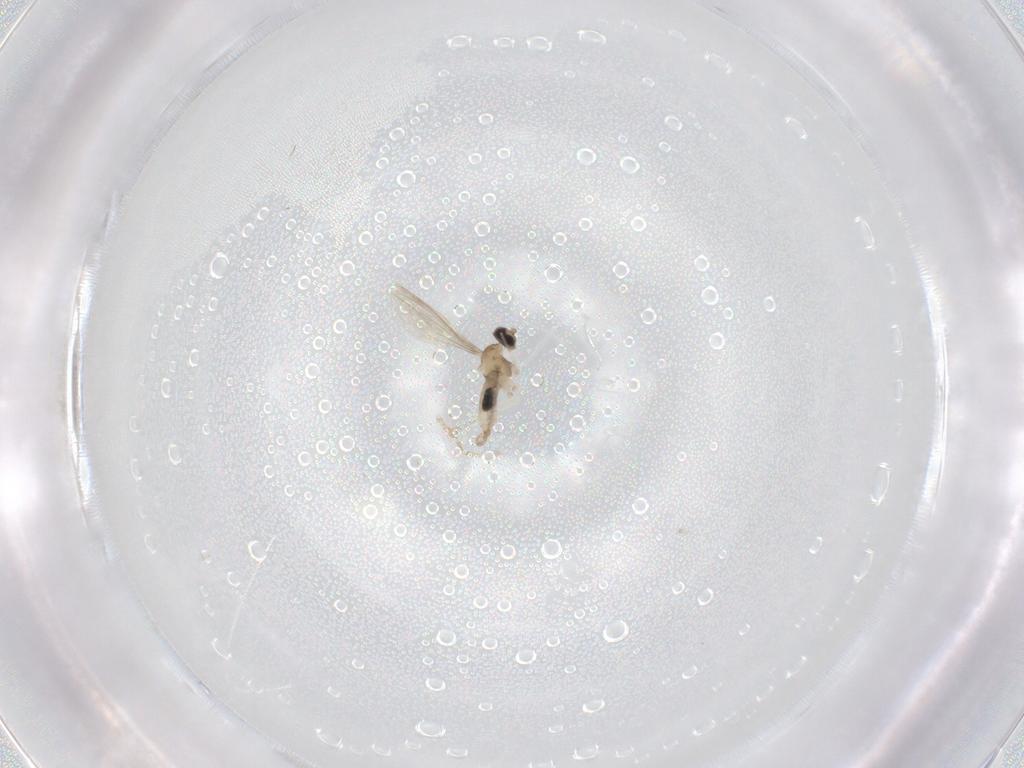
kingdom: Animalia
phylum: Arthropoda
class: Insecta
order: Diptera
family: Cecidomyiidae
